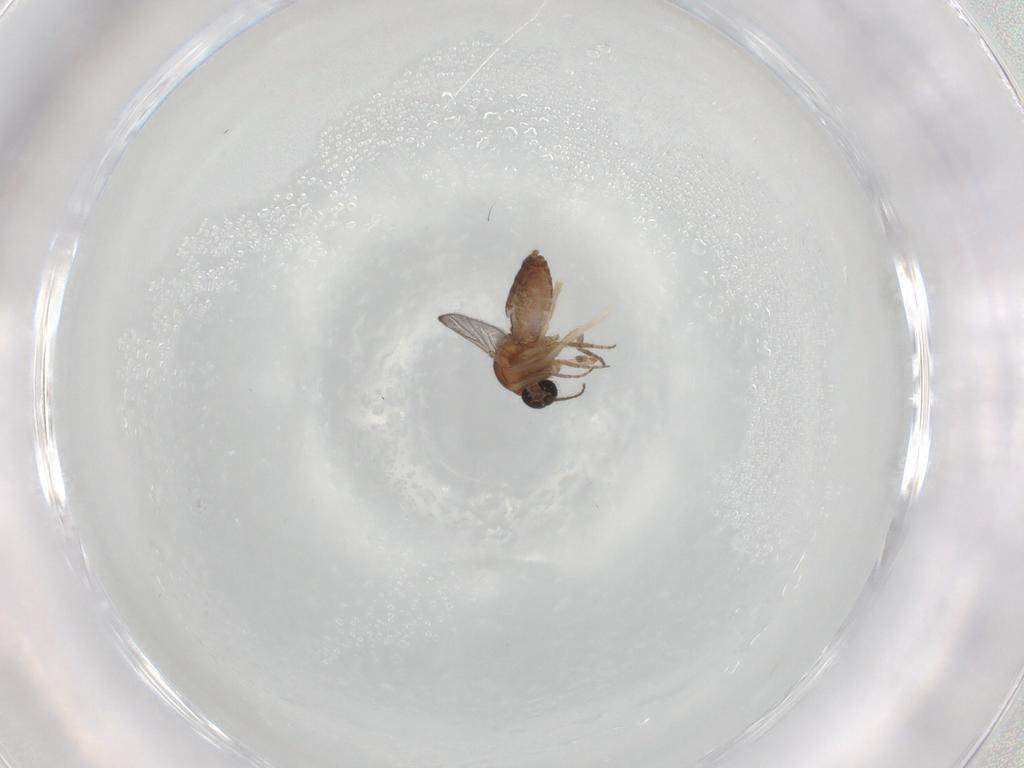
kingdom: Animalia
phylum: Arthropoda
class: Insecta
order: Diptera
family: Ceratopogonidae
